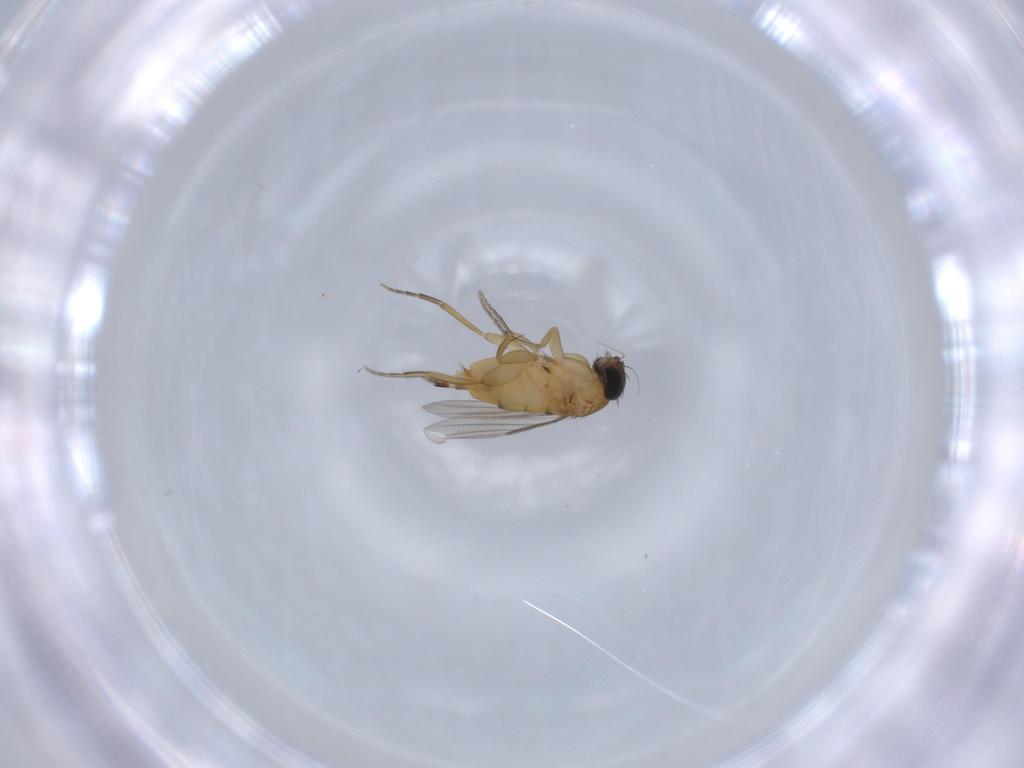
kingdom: Animalia
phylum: Arthropoda
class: Insecta
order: Diptera
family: Phoridae
